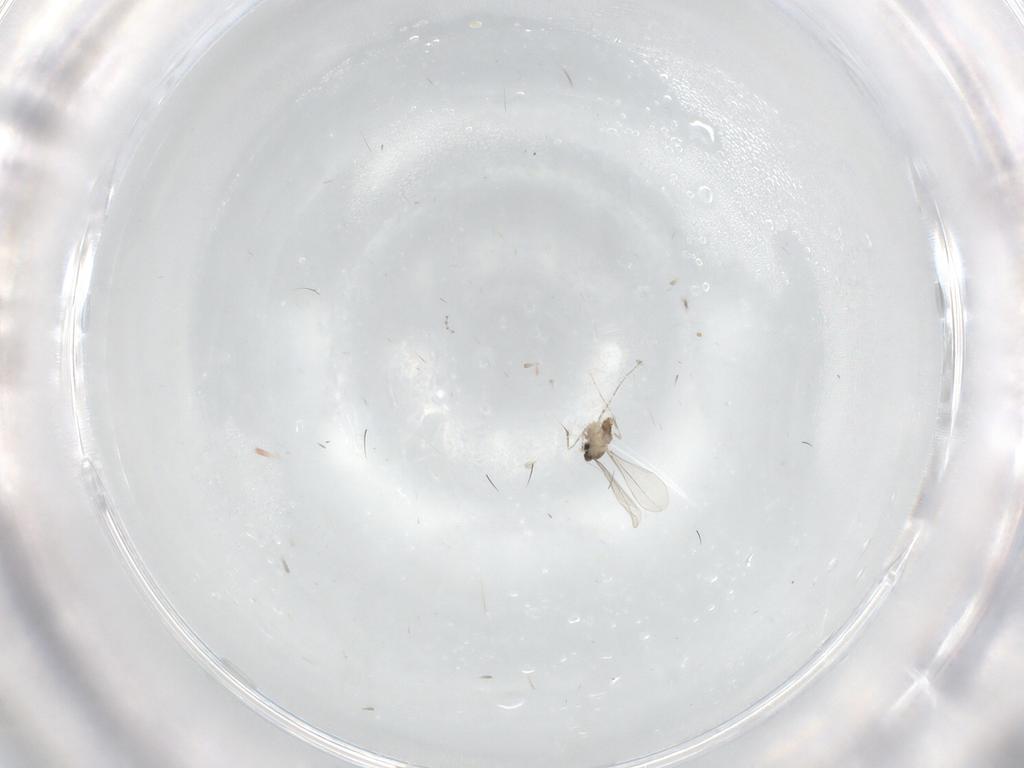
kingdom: Animalia
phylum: Arthropoda
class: Insecta
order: Diptera
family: Cecidomyiidae
